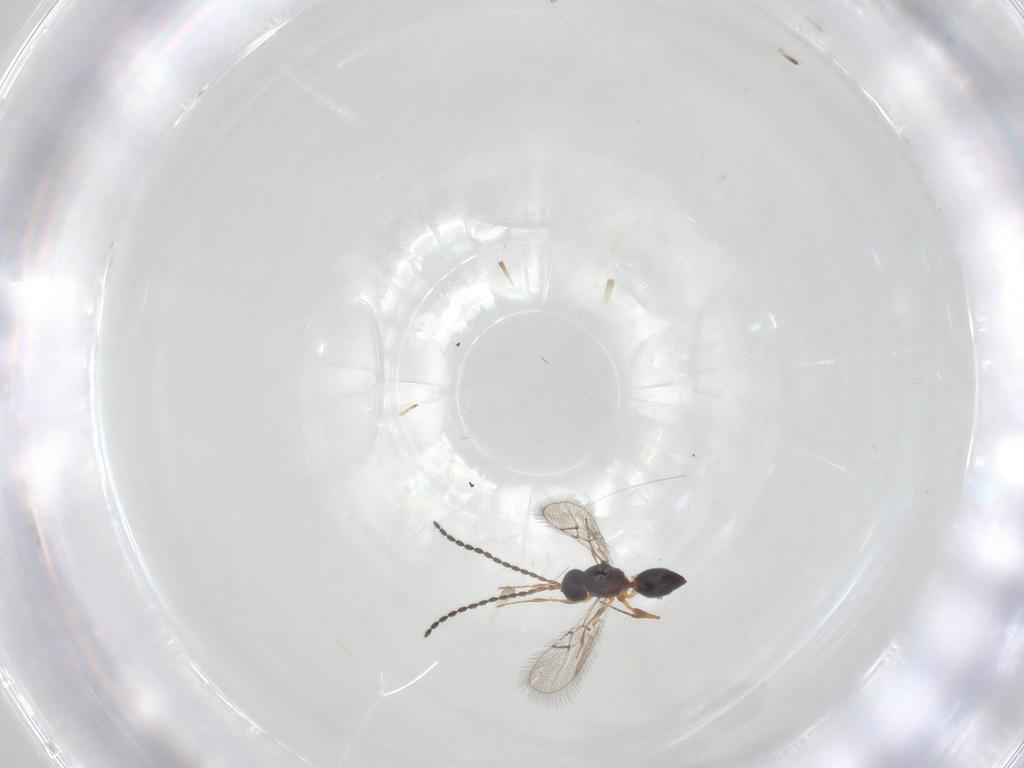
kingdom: Animalia
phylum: Arthropoda
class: Insecta
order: Hymenoptera
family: Figitidae
